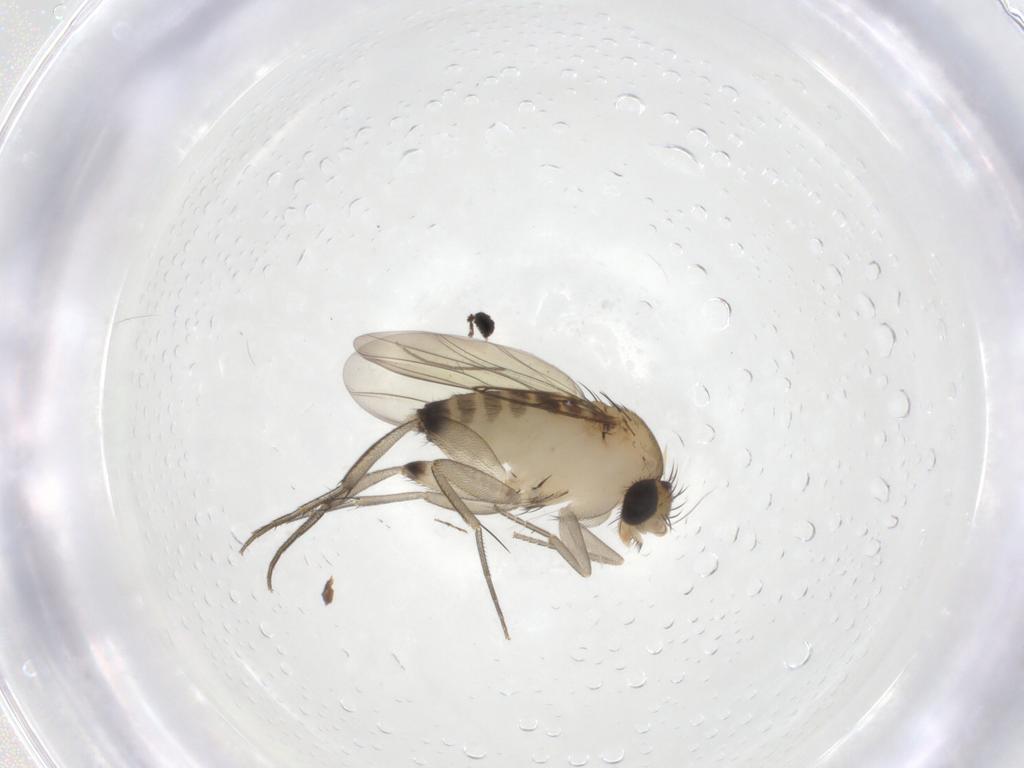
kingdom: Animalia
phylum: Arthropoda
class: Insecta
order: Diptera
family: Phoridae
